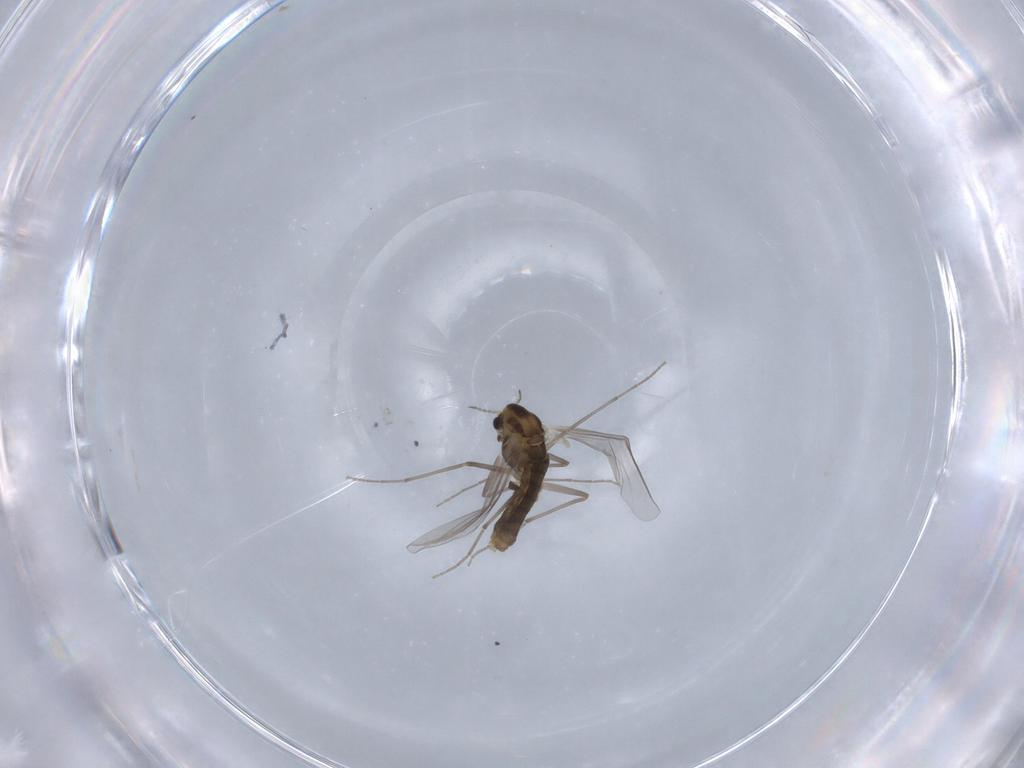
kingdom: Animalia
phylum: Arthropoda
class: Insecta
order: Diptera
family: Chironomidae
